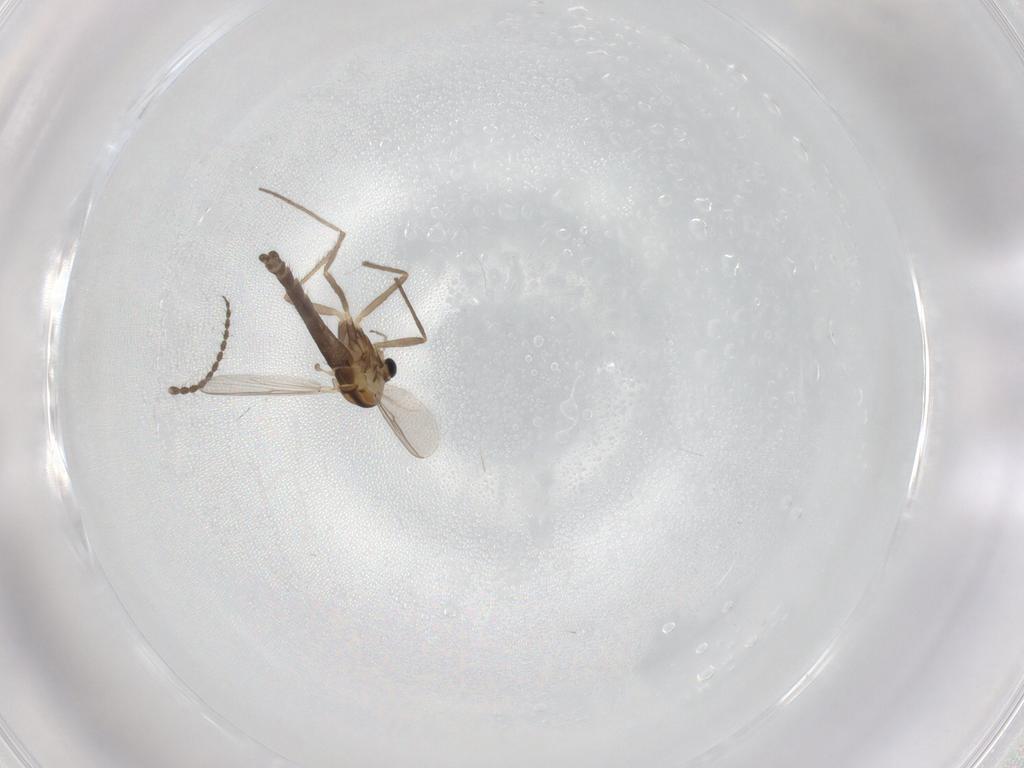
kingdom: Animalia
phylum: Arthropoda
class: Insecta
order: Diptera
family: Chironomidae
